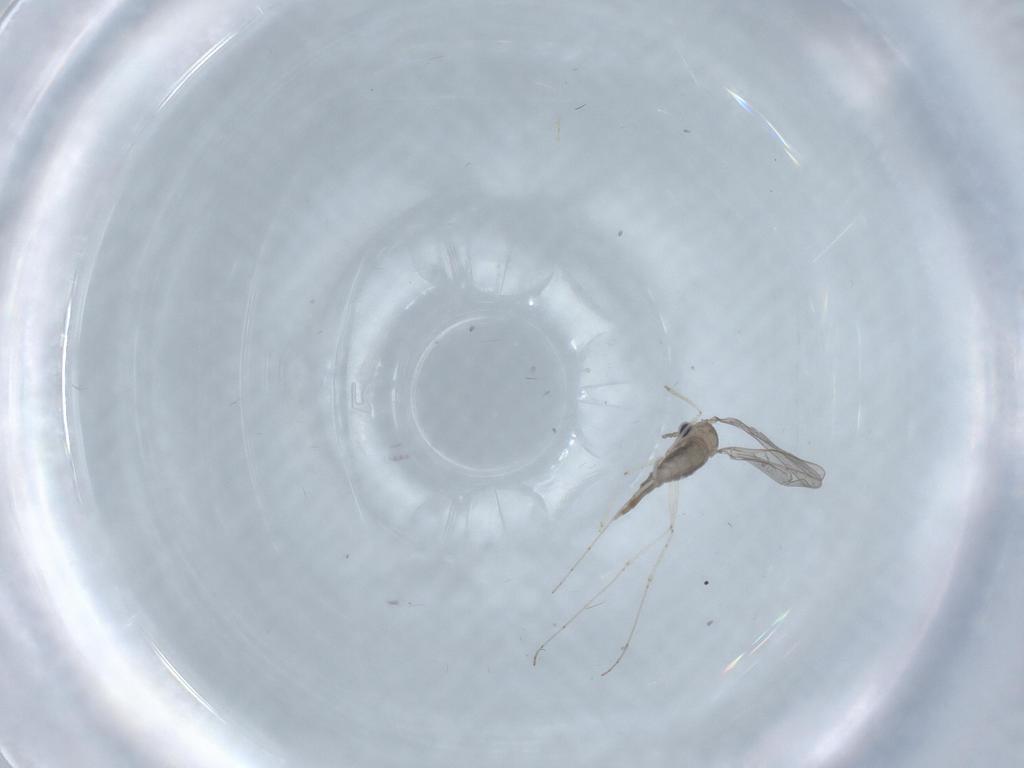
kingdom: Animalia
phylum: Arthropoda
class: Insecta
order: Diptera
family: Cecidomyiidae
